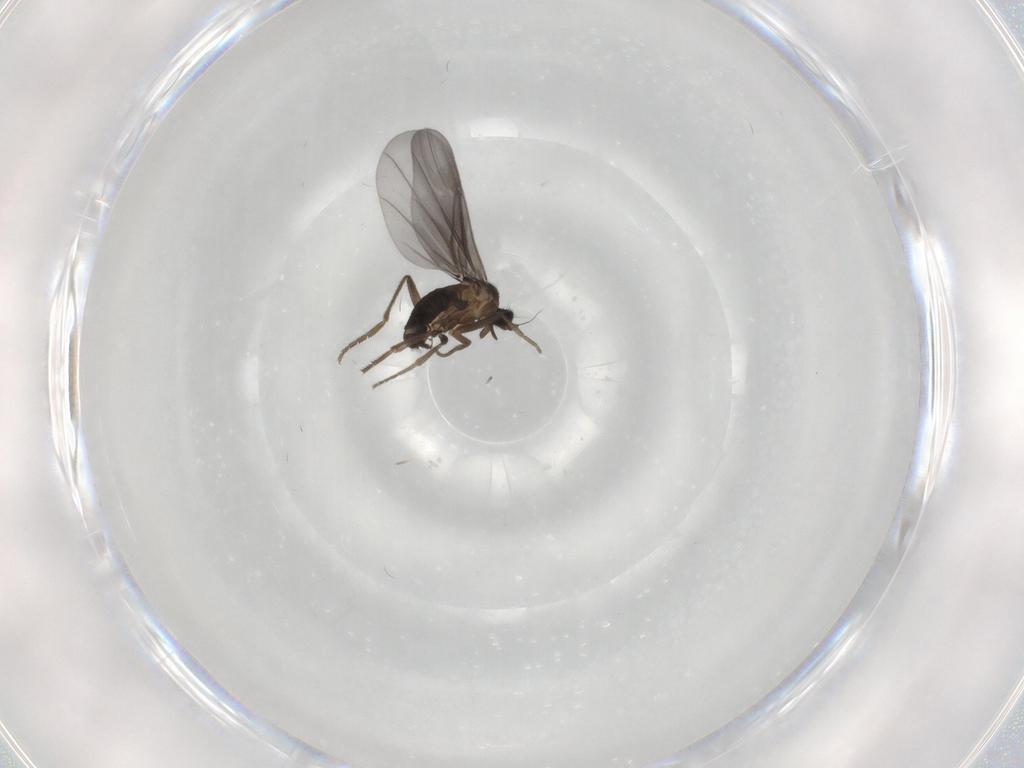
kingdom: Animalia
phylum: Arthropoda
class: Insecta
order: Diptera
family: Phoridae
